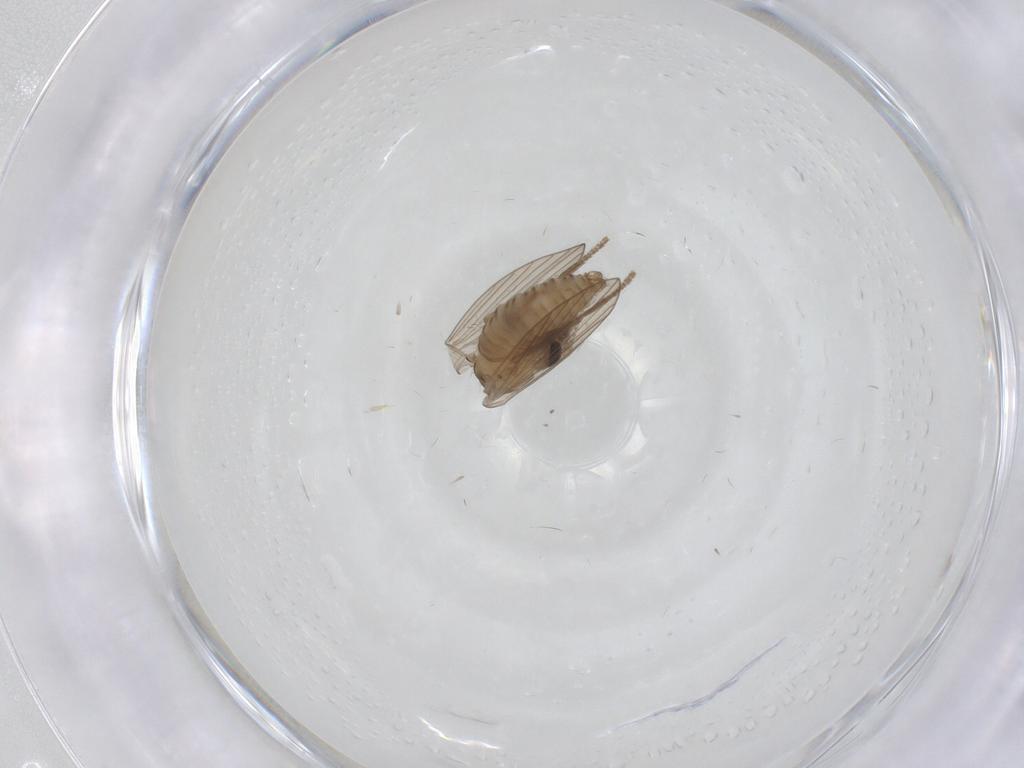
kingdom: Animalia
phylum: Arthropoda
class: Insecta
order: Diptera
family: Psychodidae
